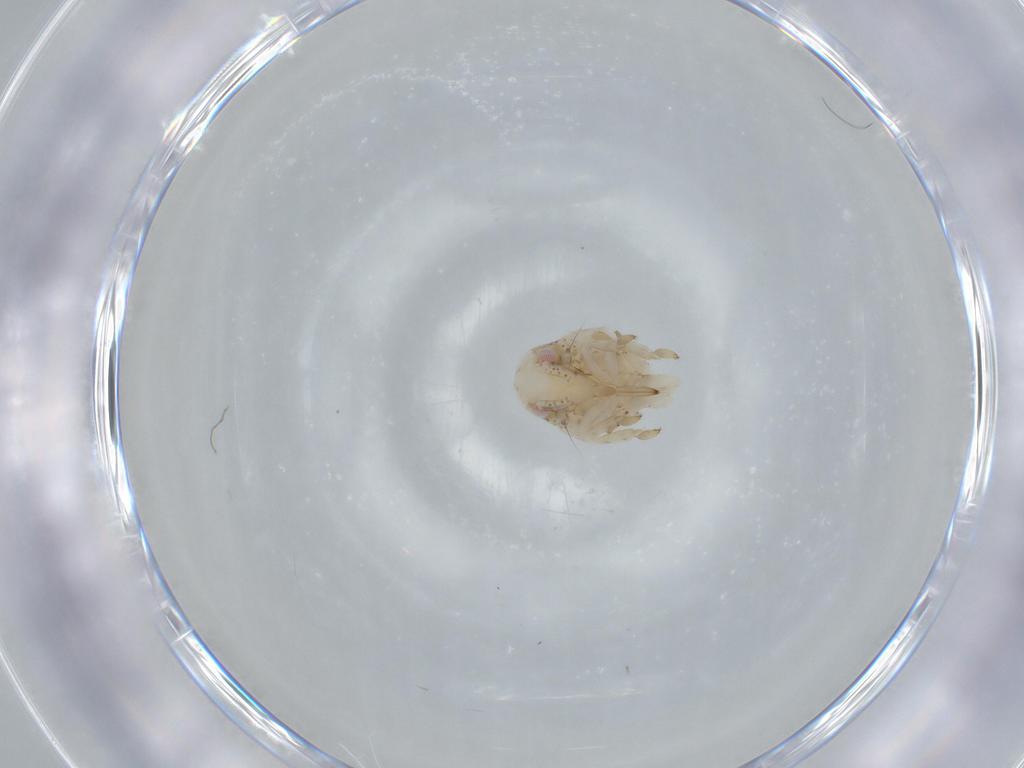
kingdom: Animalia
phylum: Arthropoda
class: Insecta
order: Hemiptera
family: Acanaloniidae
